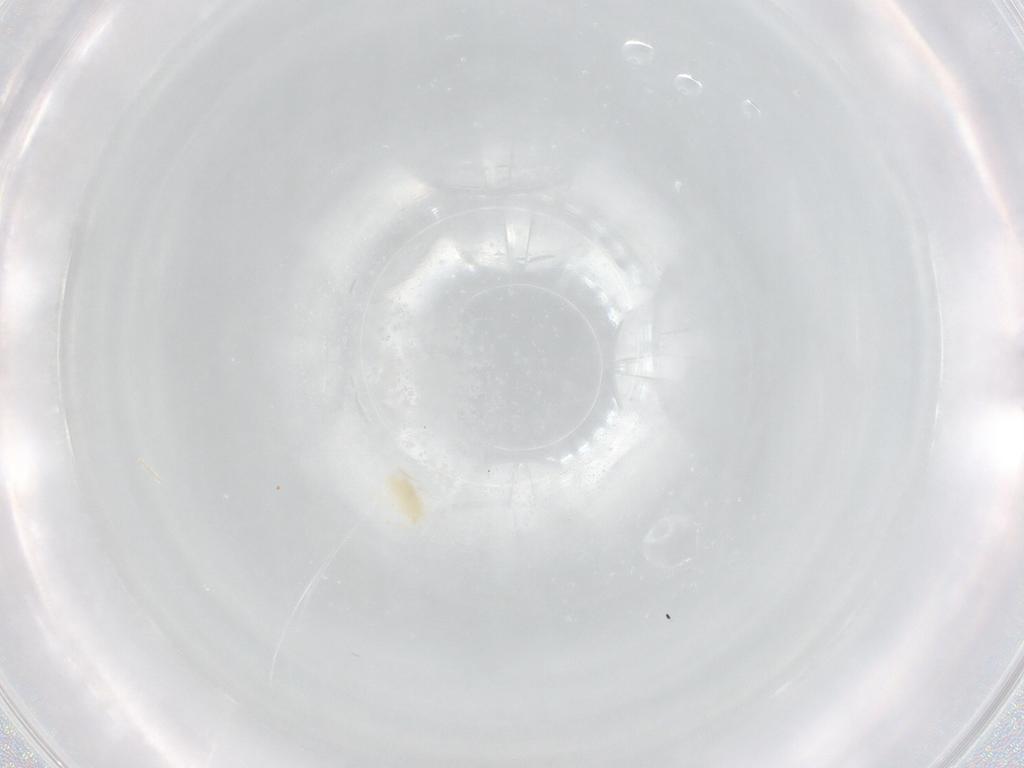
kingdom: Animalia
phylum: Arthropoda
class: Arachnida
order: Trombidiformes
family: Eupodidae
